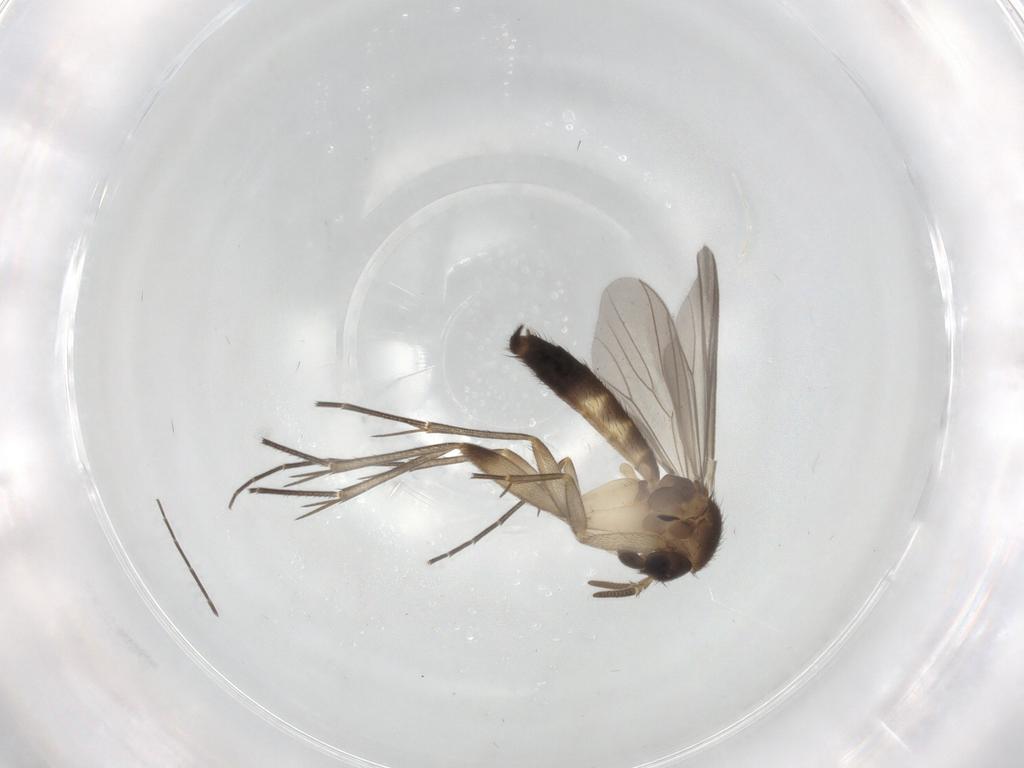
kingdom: Animalia
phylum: Arthropoda
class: Insecta
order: Diptera
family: Mycetophilidae
